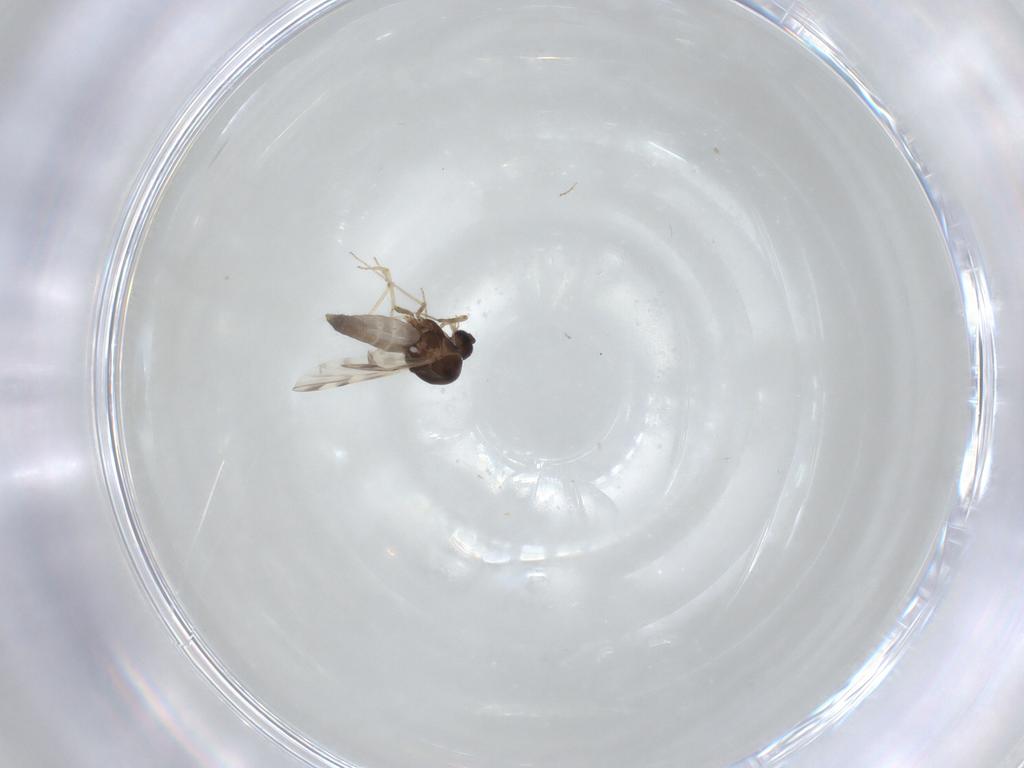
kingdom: Animalia
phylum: Arthropoda
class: Insecta
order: Diptera
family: Ceratopogonidae
